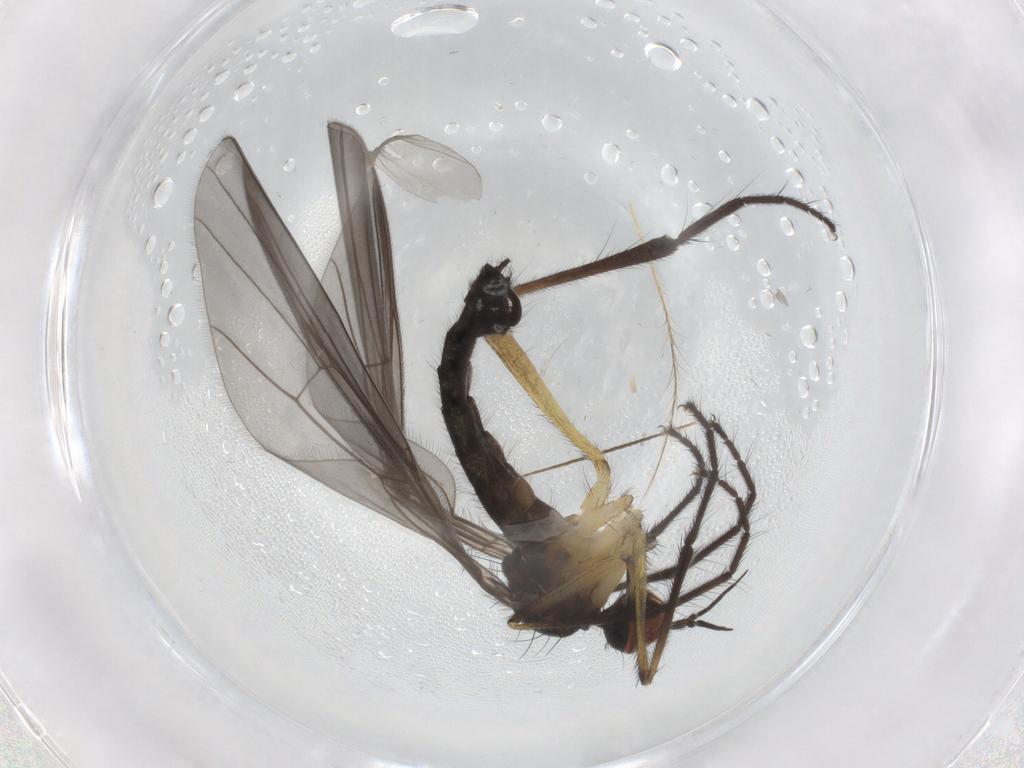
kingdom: Animalia
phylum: Arthropoda
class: Insecta
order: Diptera
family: Empididae
